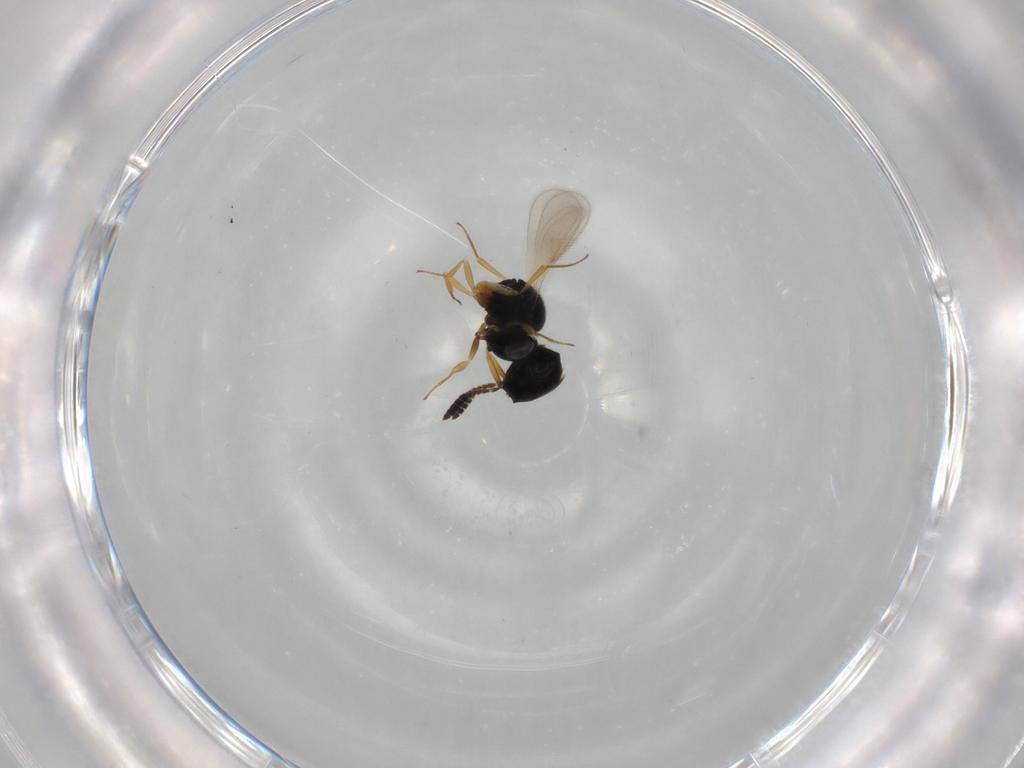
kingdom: Animalia
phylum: Arthropoda
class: Insecta
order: Hymenoptera
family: Scelionidae
